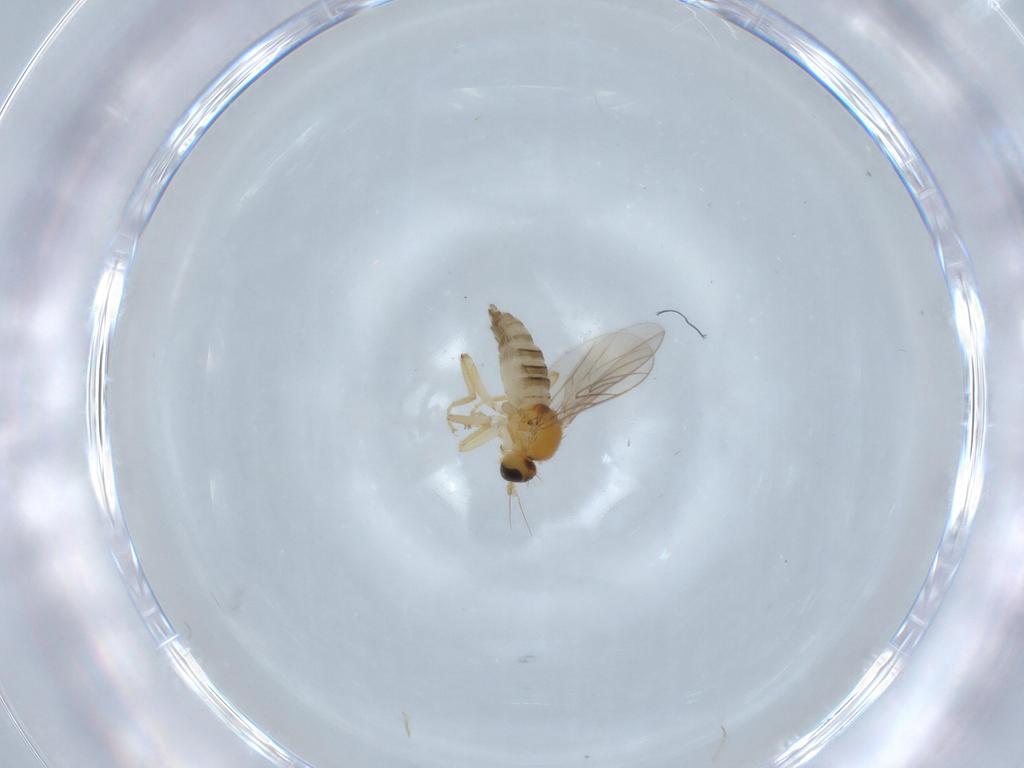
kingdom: Animalia
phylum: Arthropoda
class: Insecta
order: Diptera
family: Hybotidae
